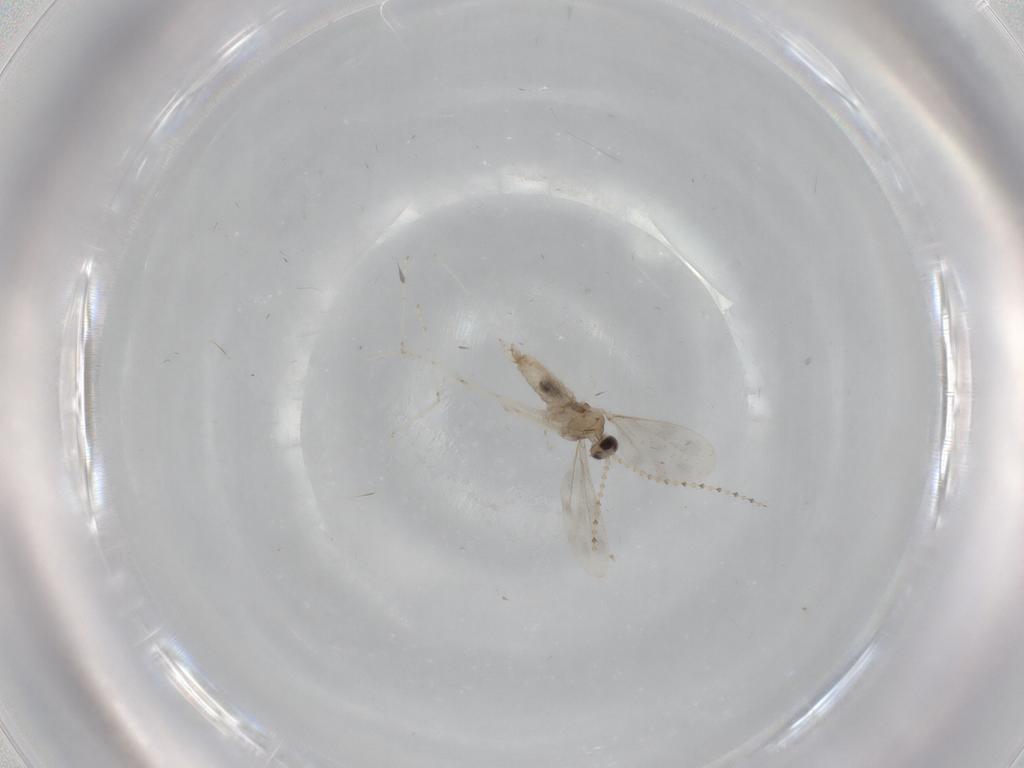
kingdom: Animalia
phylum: Arthropoda
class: Insecta
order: Diptera
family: Cecidomyiidae
